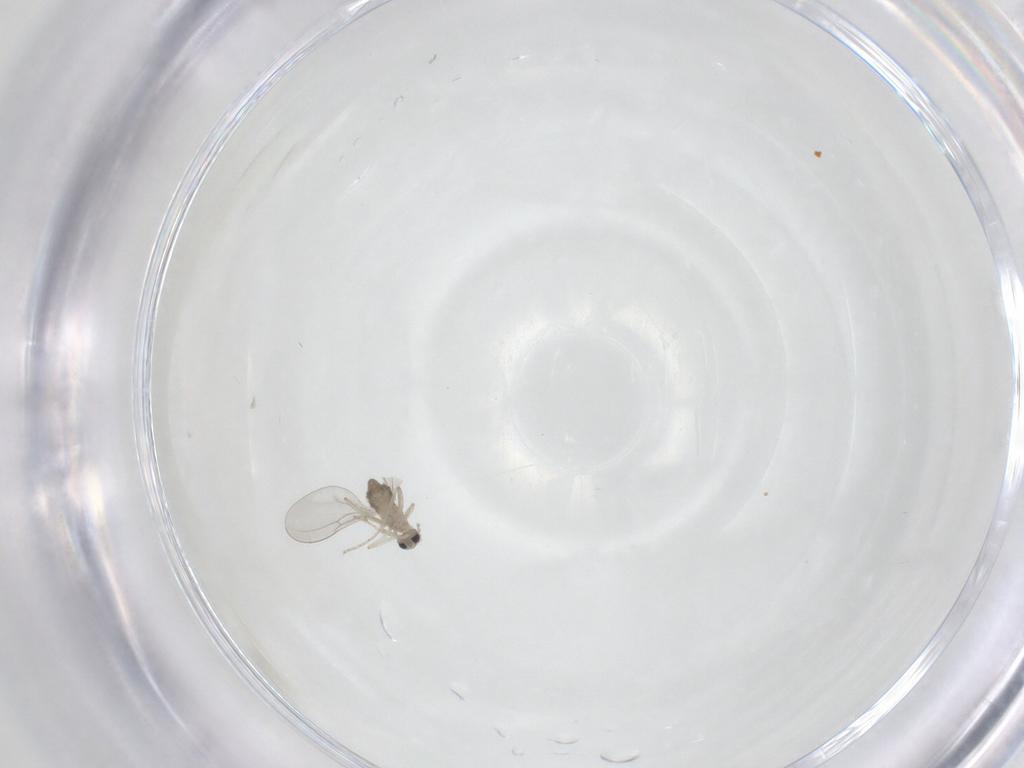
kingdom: Animalia
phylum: Arthropoda
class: Insecta
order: Diptera
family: Cecidomyiidae
